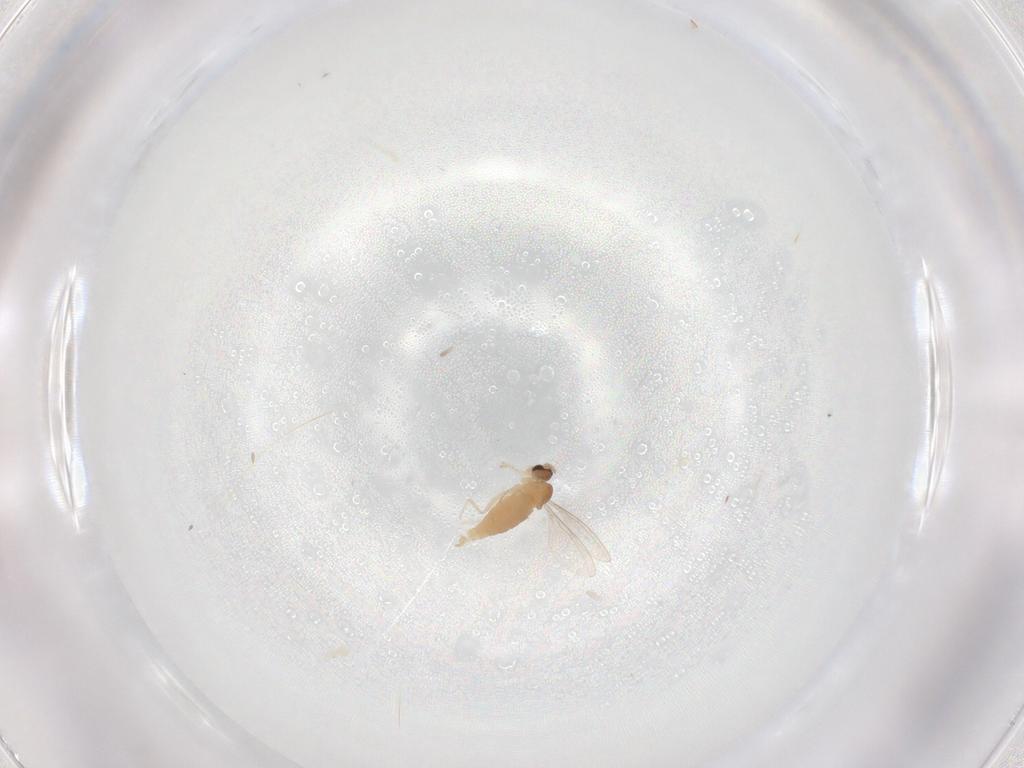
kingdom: Animalia
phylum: Arthropoda
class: Insecta
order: Diptera
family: Cecidomyiidae
